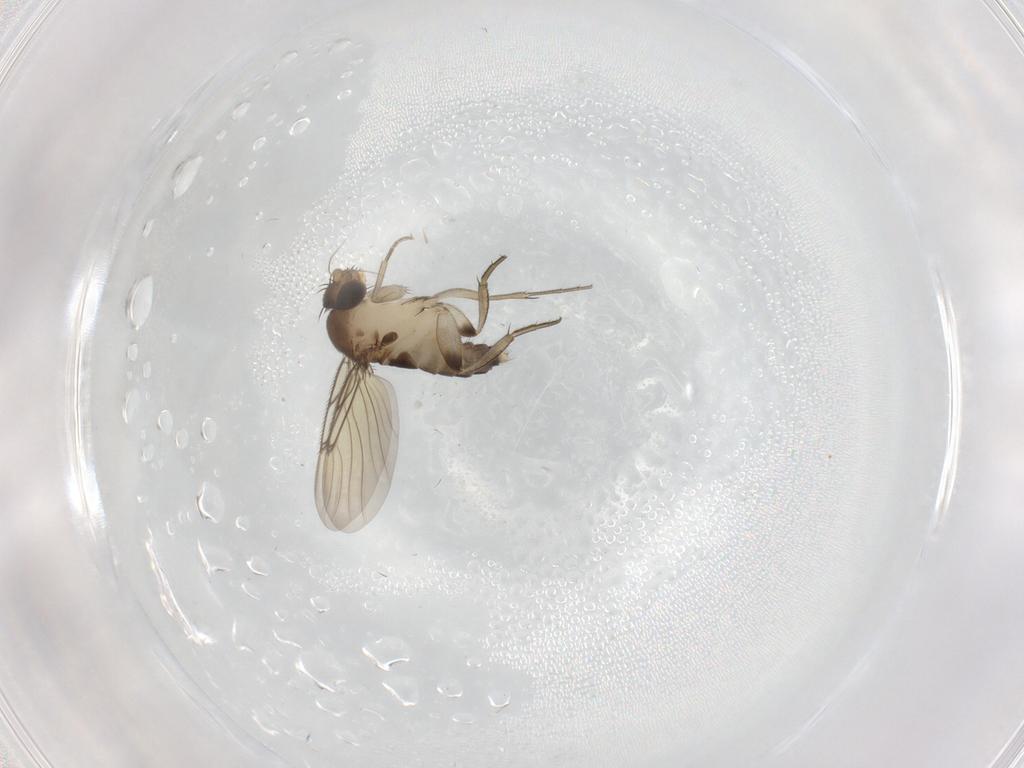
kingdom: Animalia
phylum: Arthropoda
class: Insecta
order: Diptera
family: Phoridae
